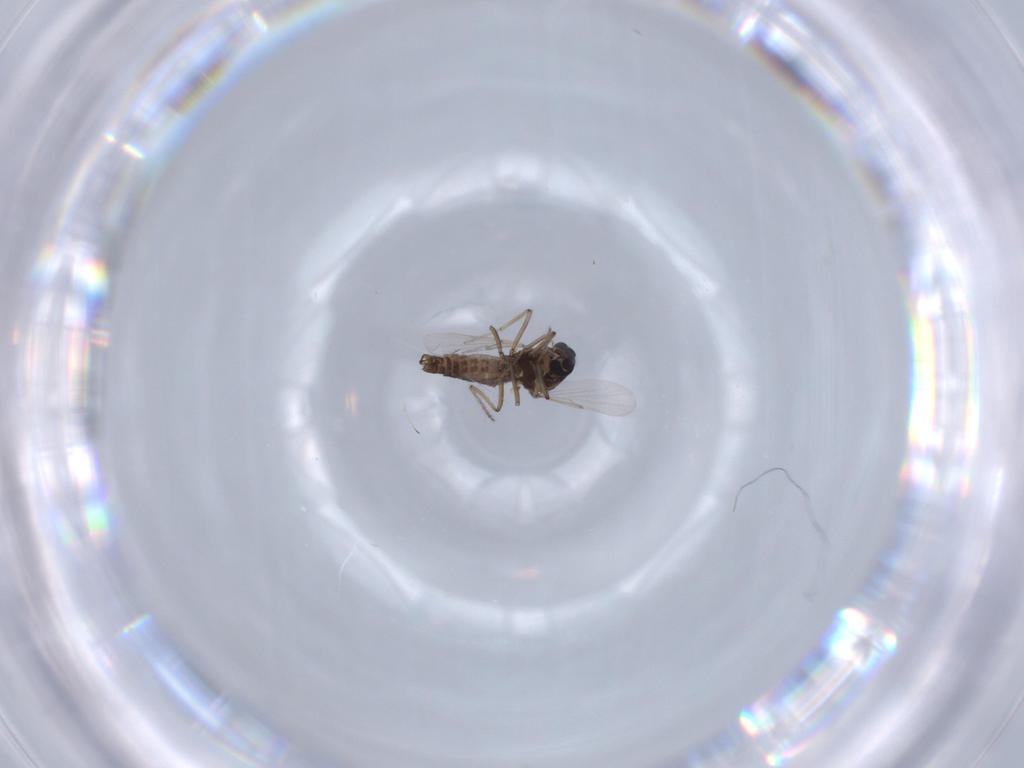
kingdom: Animalia
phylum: Arthropoda
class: Insecta
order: Diptera
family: Ceratopogonidae
